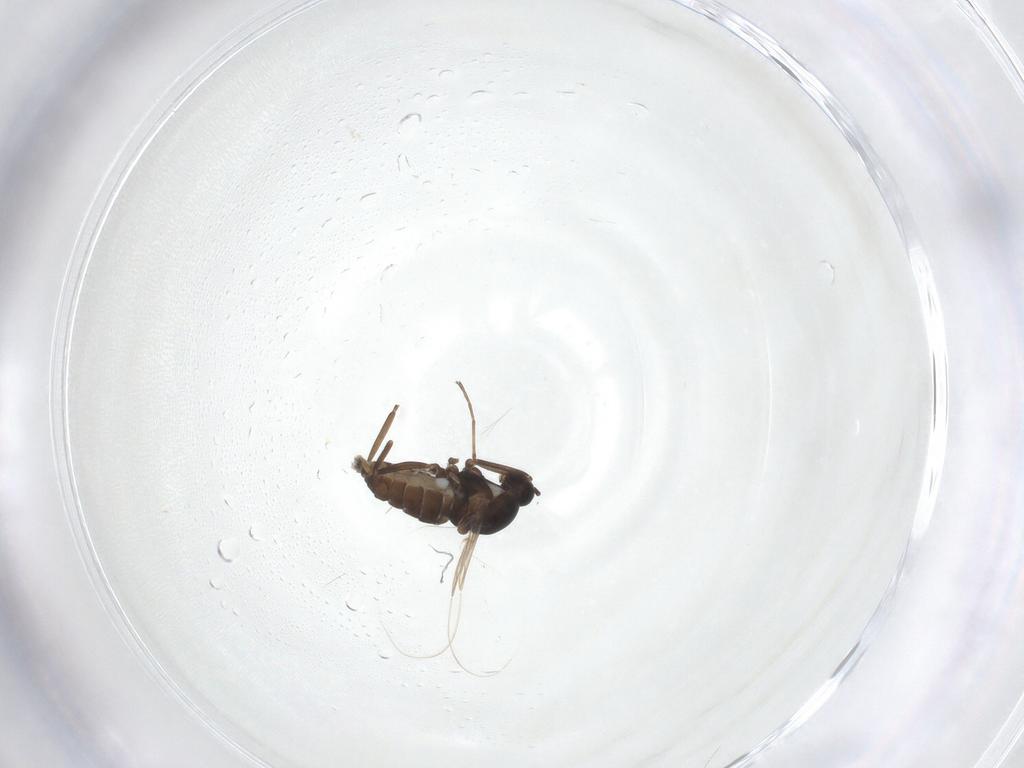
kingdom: Animalia
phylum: Arthropoda
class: Insecta
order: Diptera
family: Cecidomyiidae
